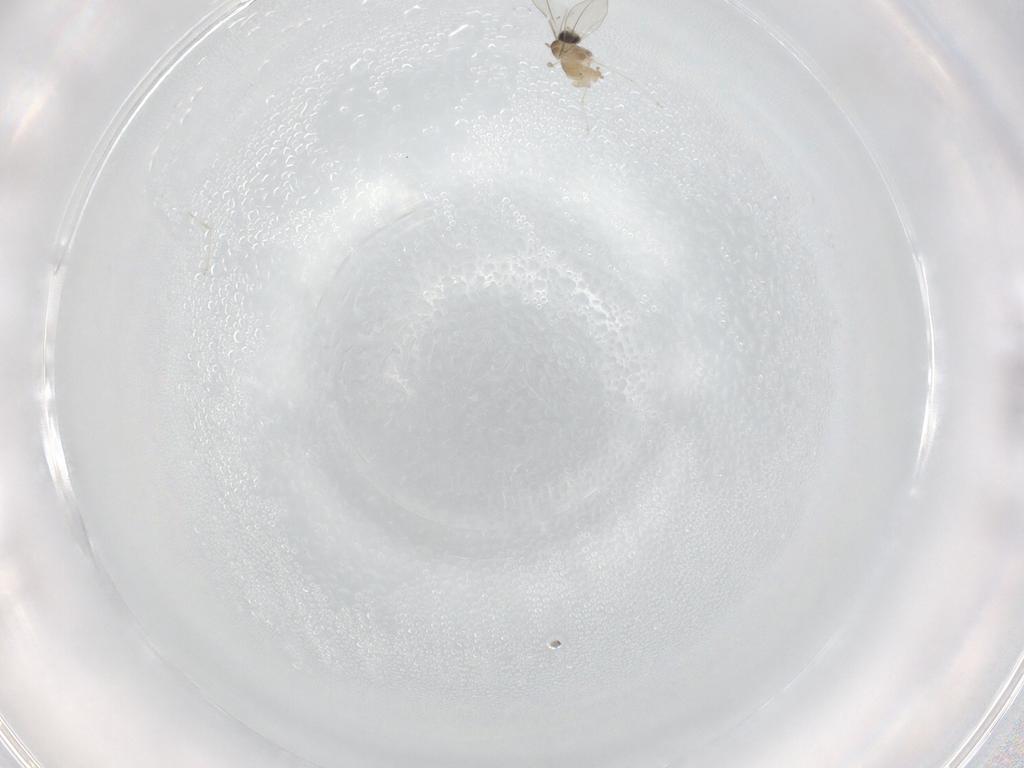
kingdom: Animalia
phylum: Arthropoda
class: Insecta
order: Diptera
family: Cecidomyiidae
